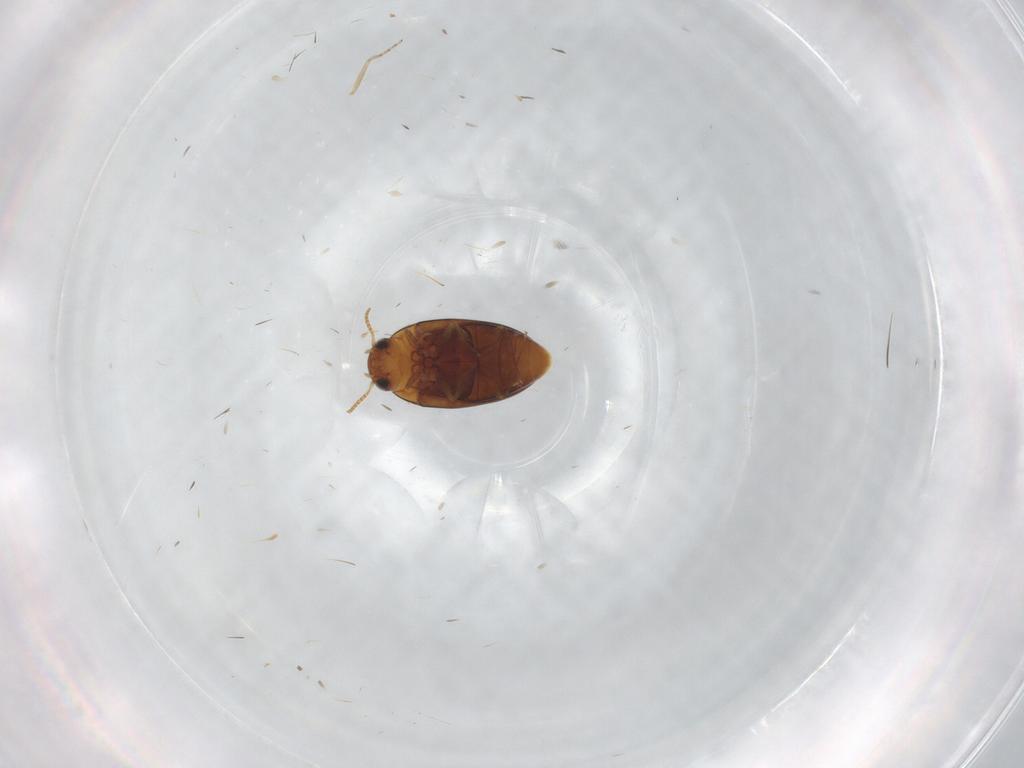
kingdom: Animalia
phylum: Arthropoda
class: Insecta
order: Coleoptera
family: Noteridae
